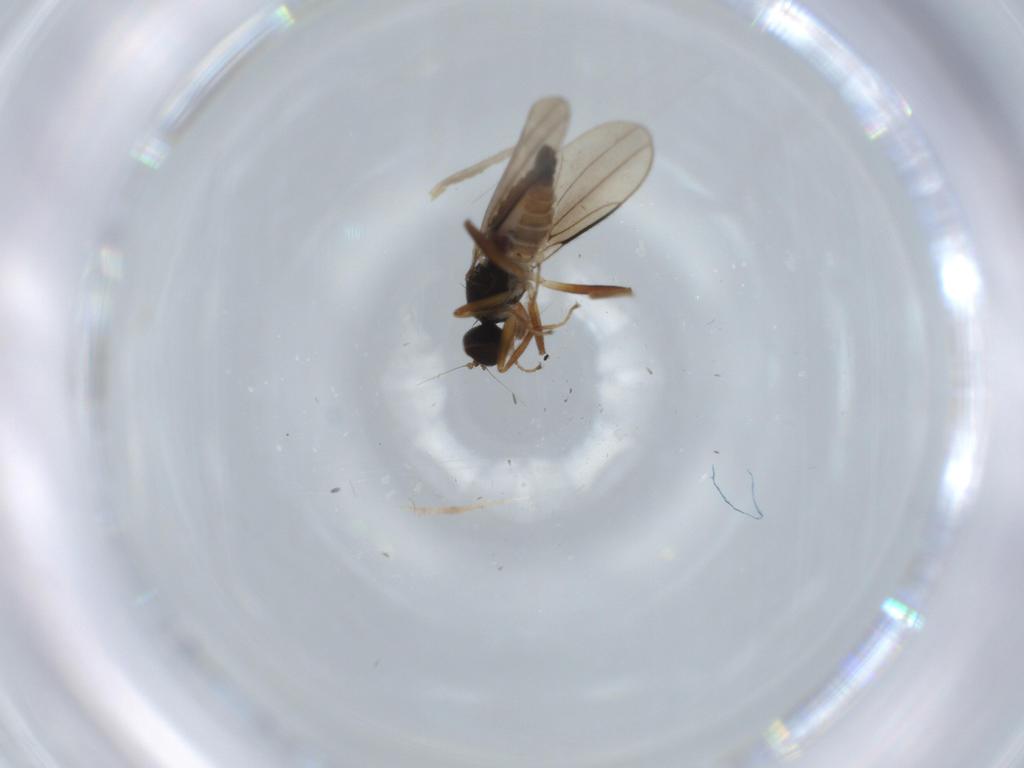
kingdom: Animalia
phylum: Arthropoda
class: Insecta
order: Diptera
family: Hybotidae
